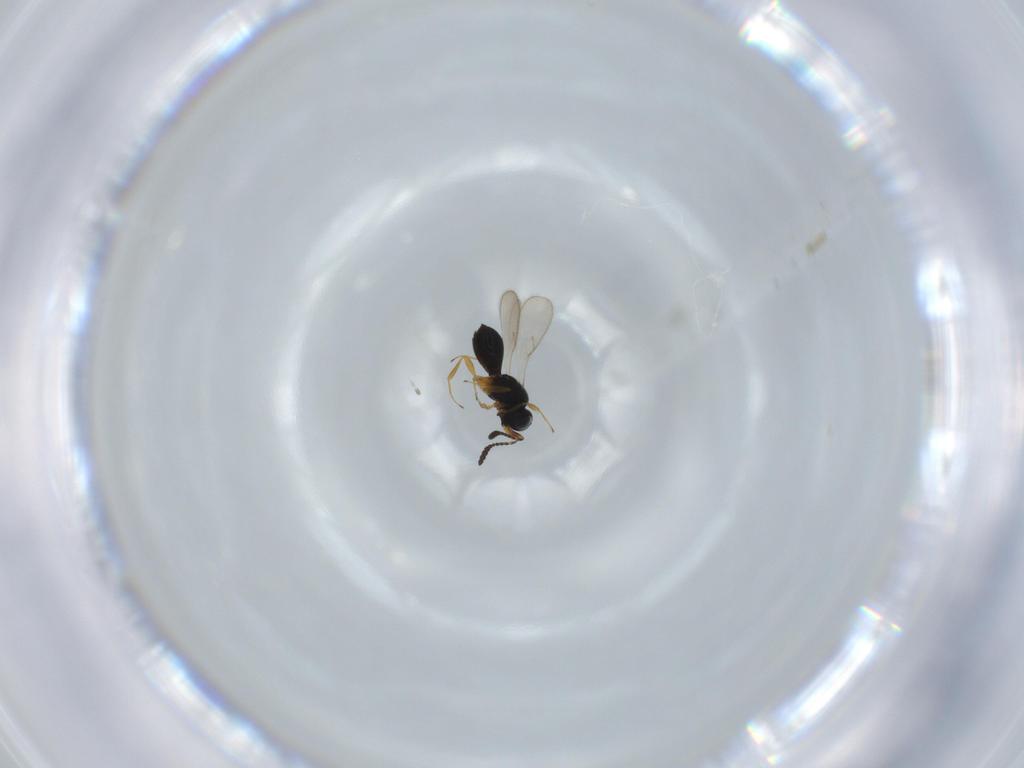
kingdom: Animalia
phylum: Arthropoda
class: Insecta
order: Hymenoptera
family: Scelionidae
